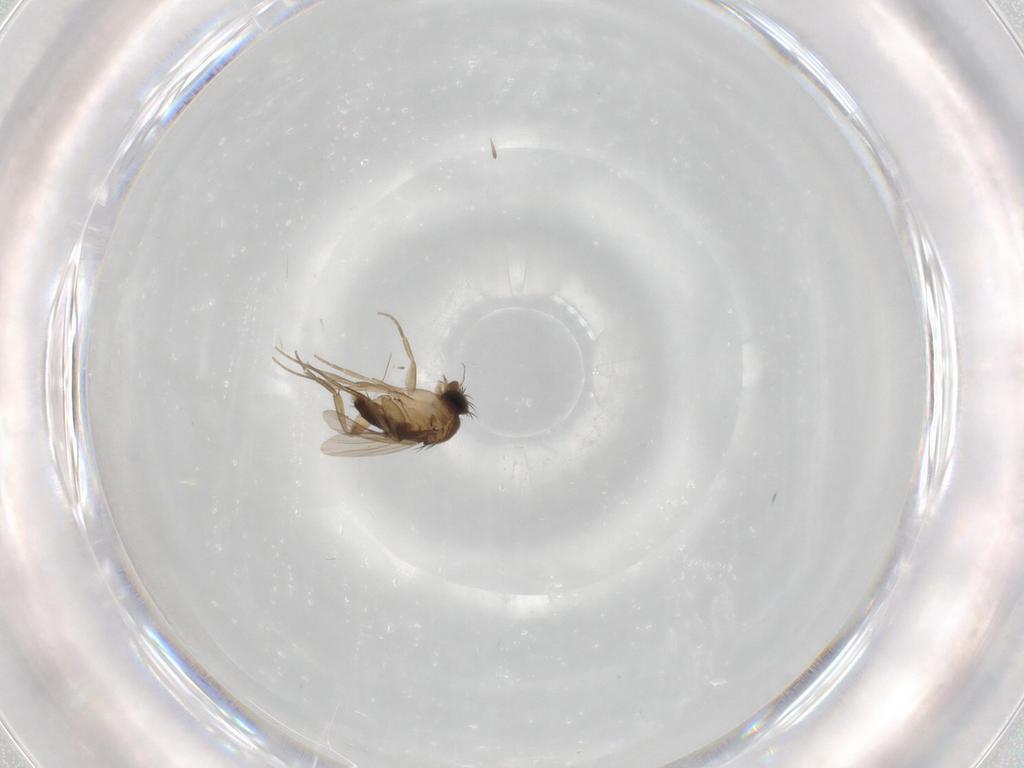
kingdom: Animalia
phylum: Arthropoda
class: Insecta
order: Diptera
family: Phoridae
